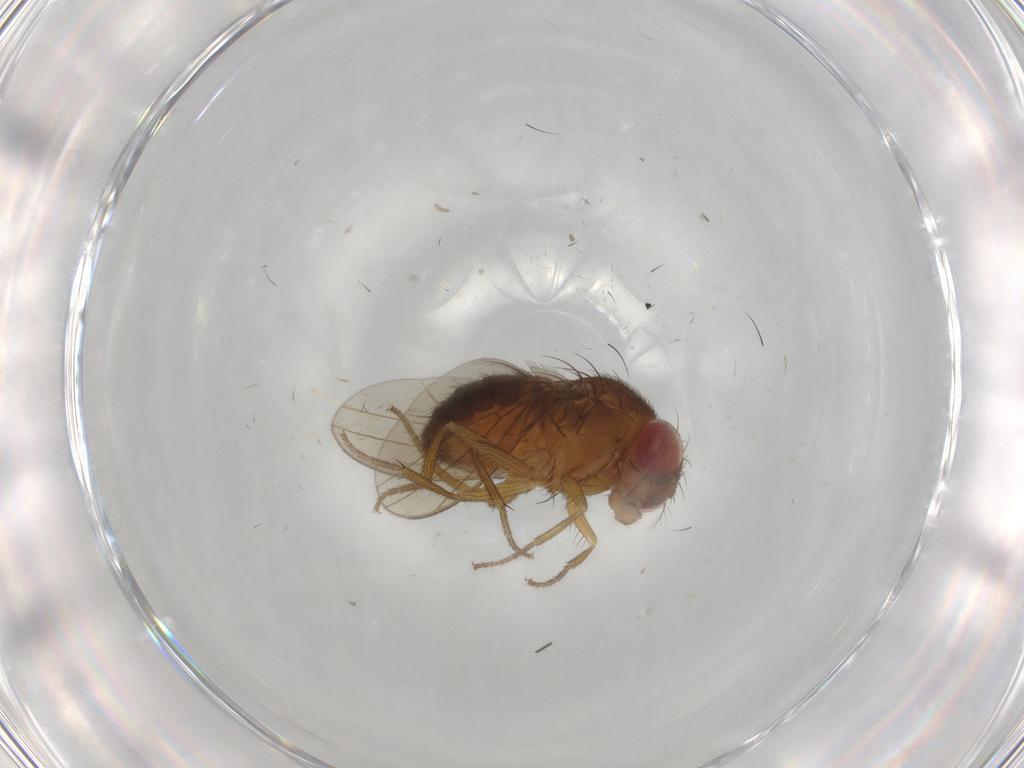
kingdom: Animalia
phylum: Arthropoda
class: Insecta
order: Diptera
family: Drosophilidae
